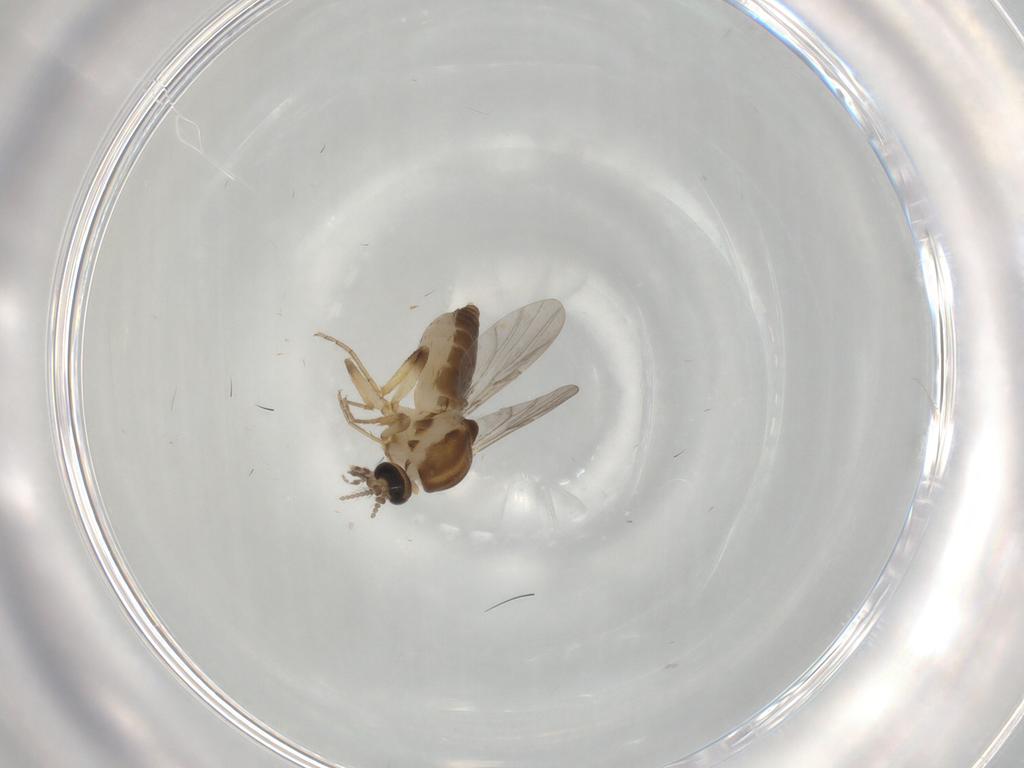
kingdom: Animalia
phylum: Arthropoda
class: Insecta
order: Diptera
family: Ceratopogonidae
